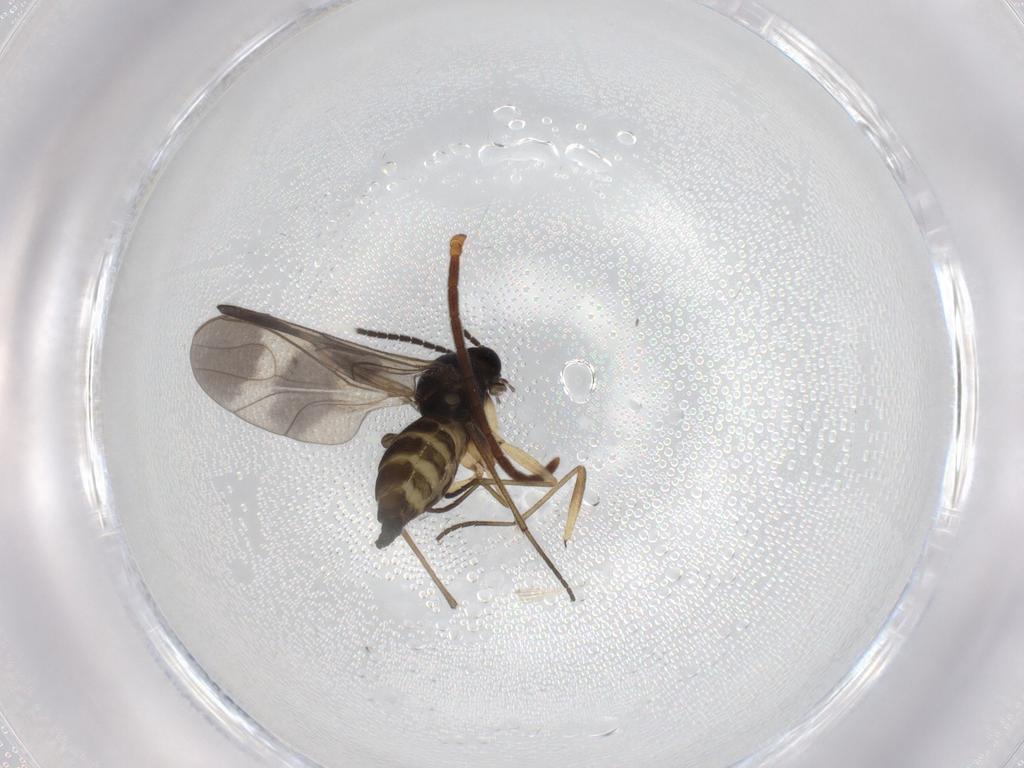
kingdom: Animalia
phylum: Arthropoda
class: Insecta
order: Diptera
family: Sciaridae
